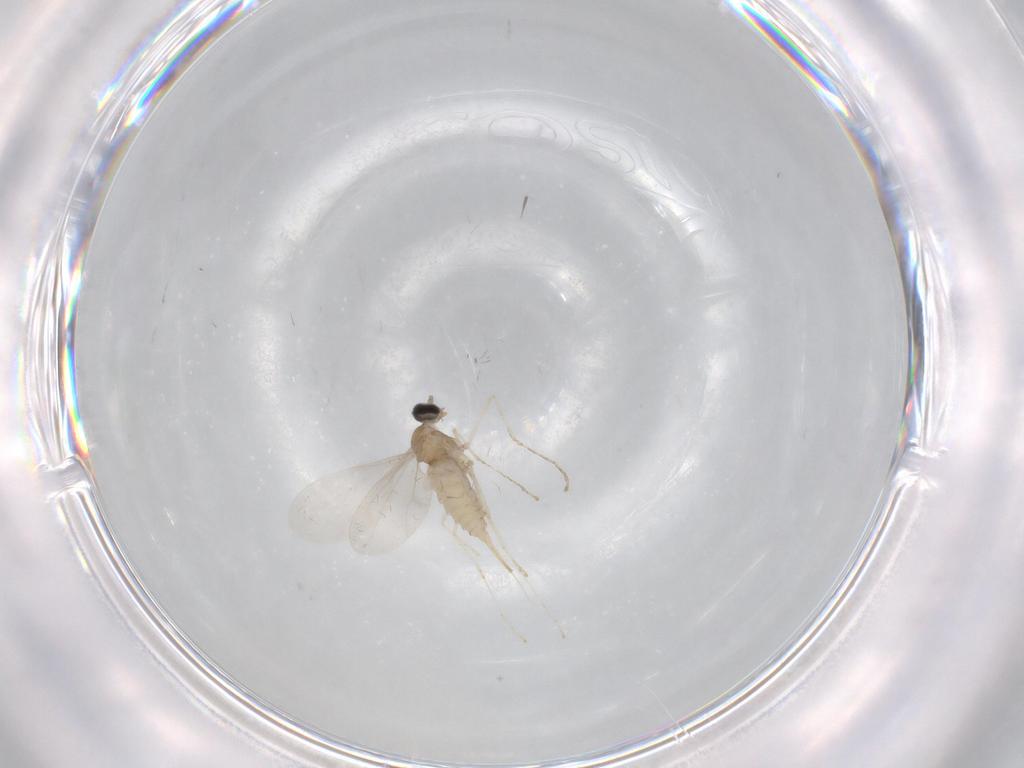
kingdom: Animalia
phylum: Arthropoda
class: Insecta
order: Diptera
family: Cecidomyiidae
